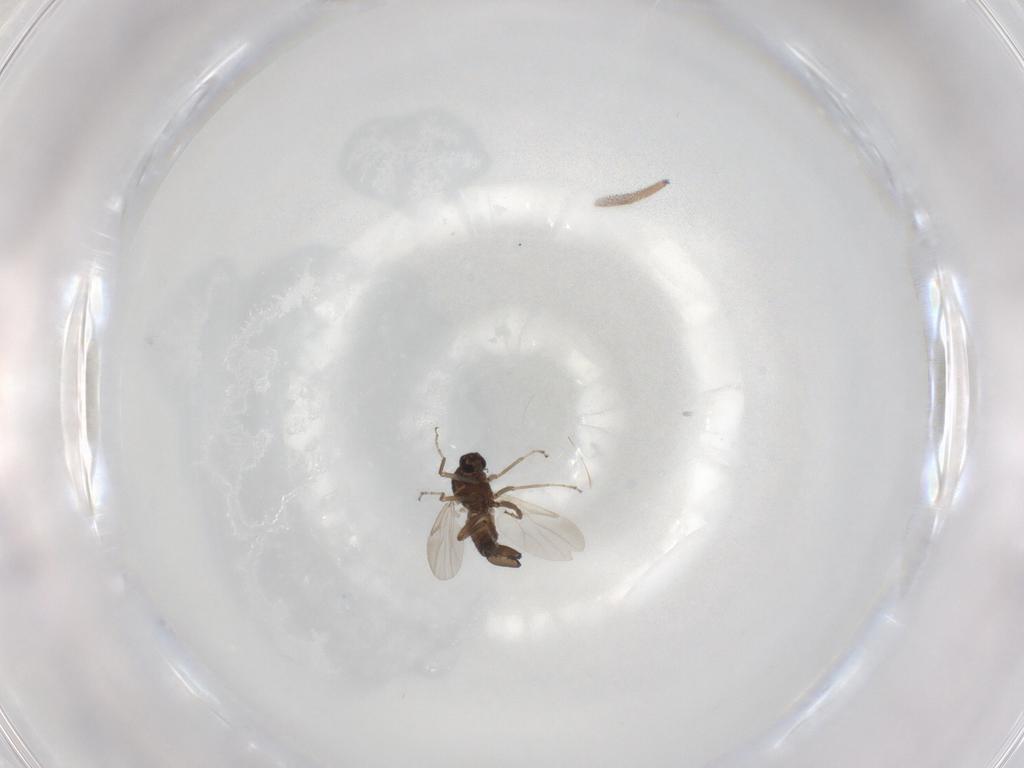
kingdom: Animalia
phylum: Arthropoda
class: Insecta
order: Diptera
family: Ceratopogonidae
